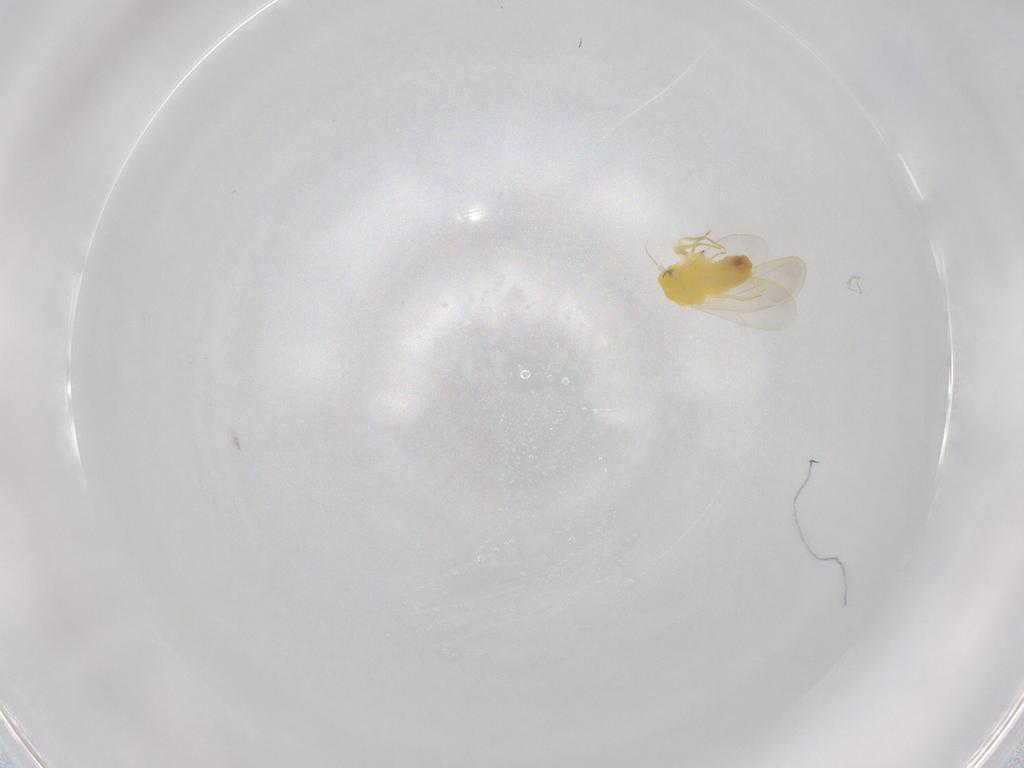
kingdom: Animalia
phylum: Arthropoda
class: Insecta
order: Hemiptera
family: Aleyrodidae
